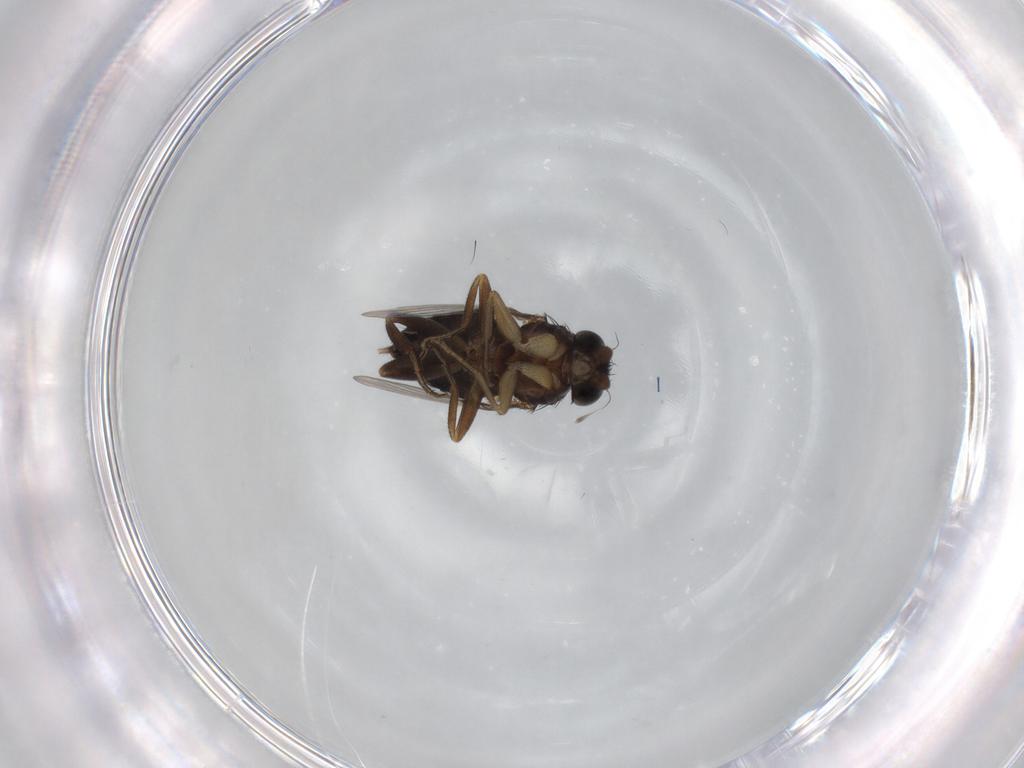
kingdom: Animalia
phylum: Arthropoda
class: Insecta
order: Diptera
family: Phoridae
